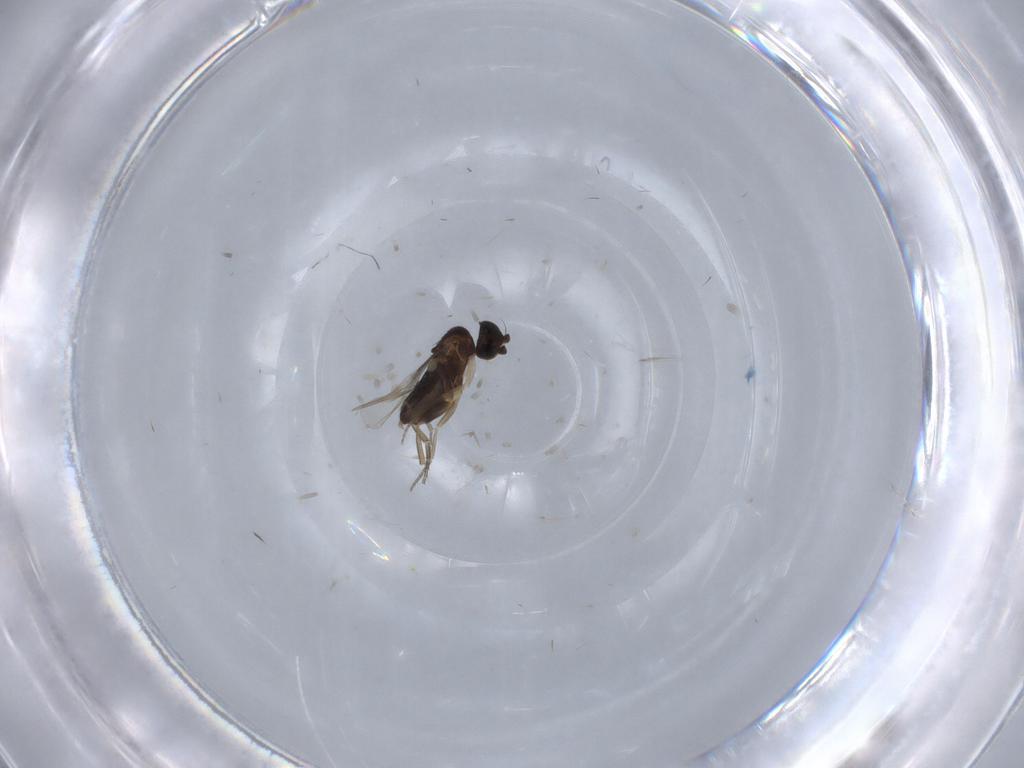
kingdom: Animalia
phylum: Arthropoda
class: Insecta
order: Diptera
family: Phoridae
